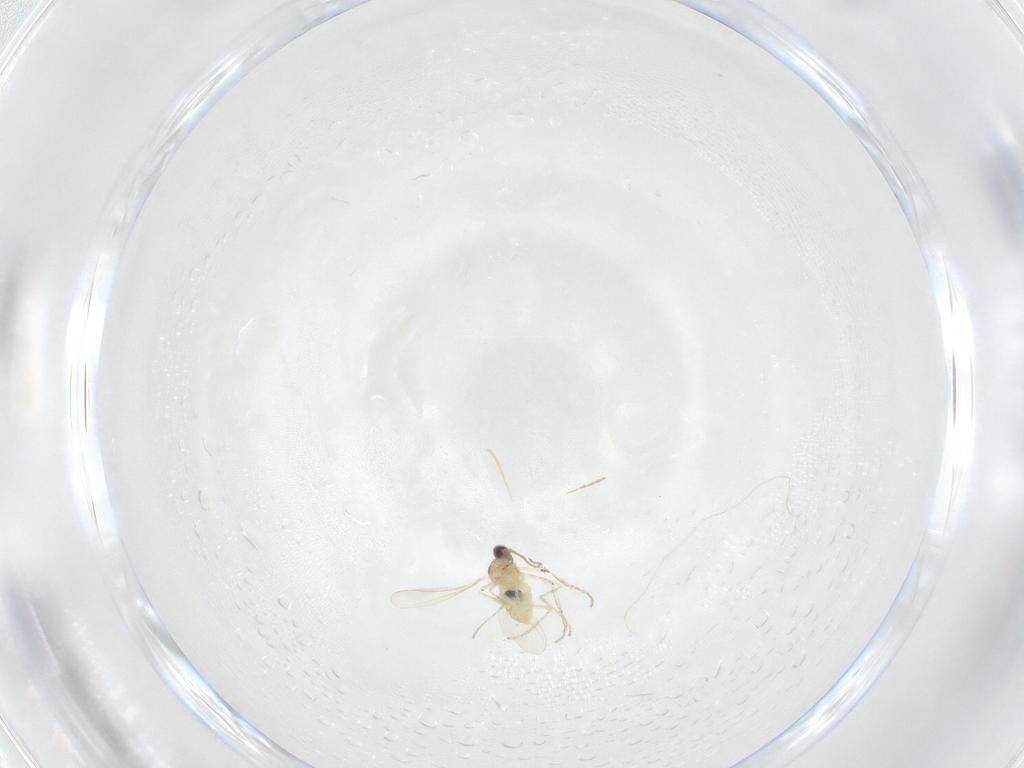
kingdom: Animalia
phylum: Arthropoda
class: Insecta
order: Diptera
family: Cecidomyiidae
